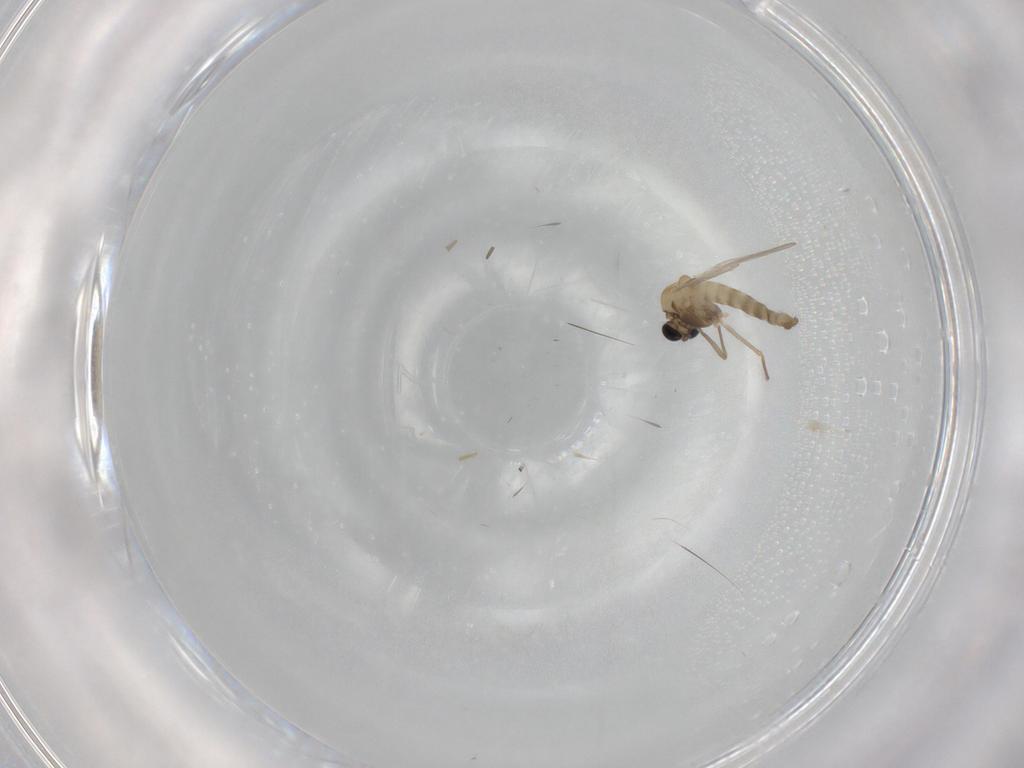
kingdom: Animalia
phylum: Arthropoda
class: Insecta
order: Diptera
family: Chironomidae
